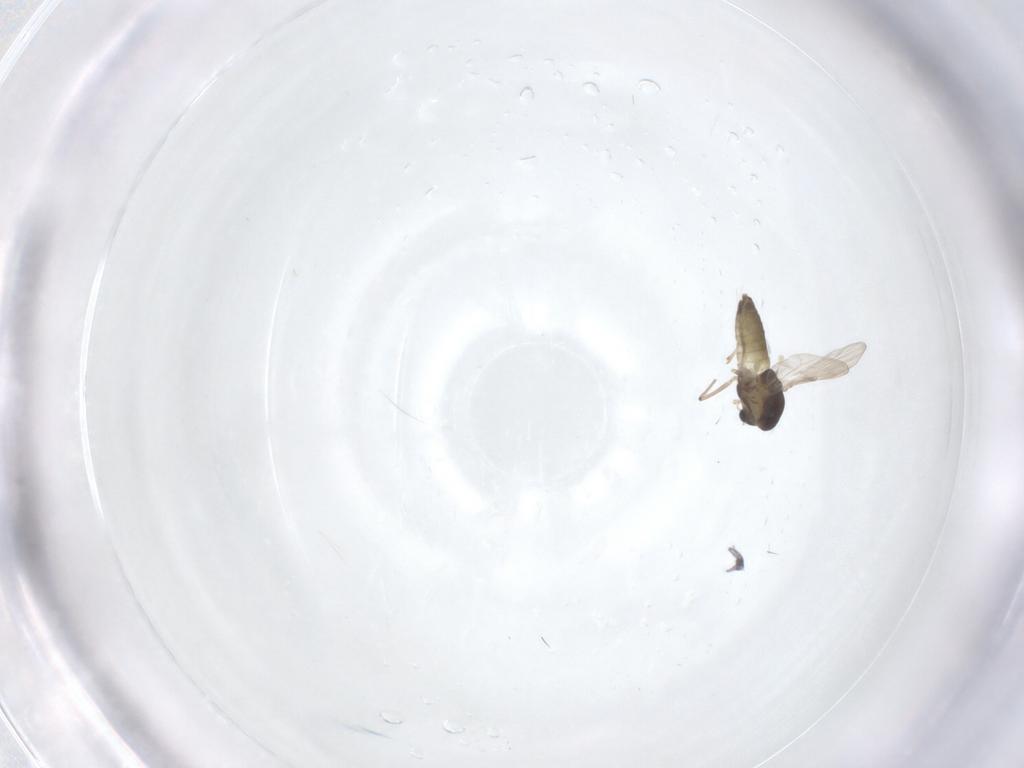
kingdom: Animalia
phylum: Arthropoda
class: Insecta
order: Diptera
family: Chironomidae
